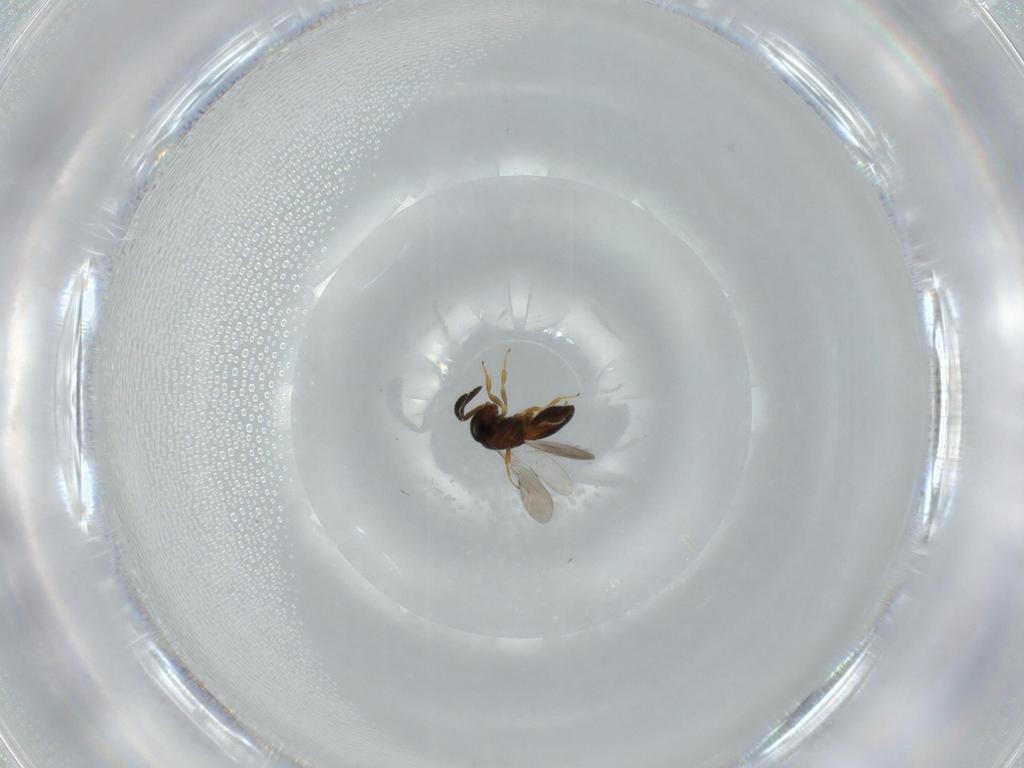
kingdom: Animalia
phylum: Arthropoda
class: Insecta
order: Hymenoptera
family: Scelionidae
